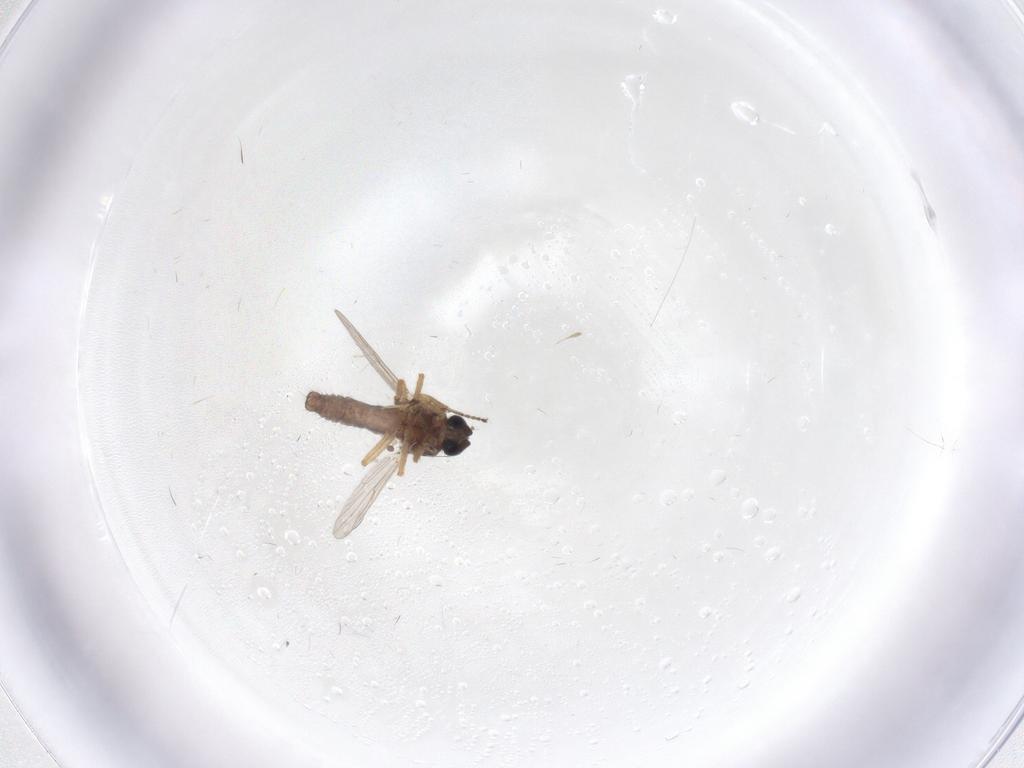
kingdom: Animalia
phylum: Arthropoda
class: Insecta
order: Diptera
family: Ceratopogonidae
